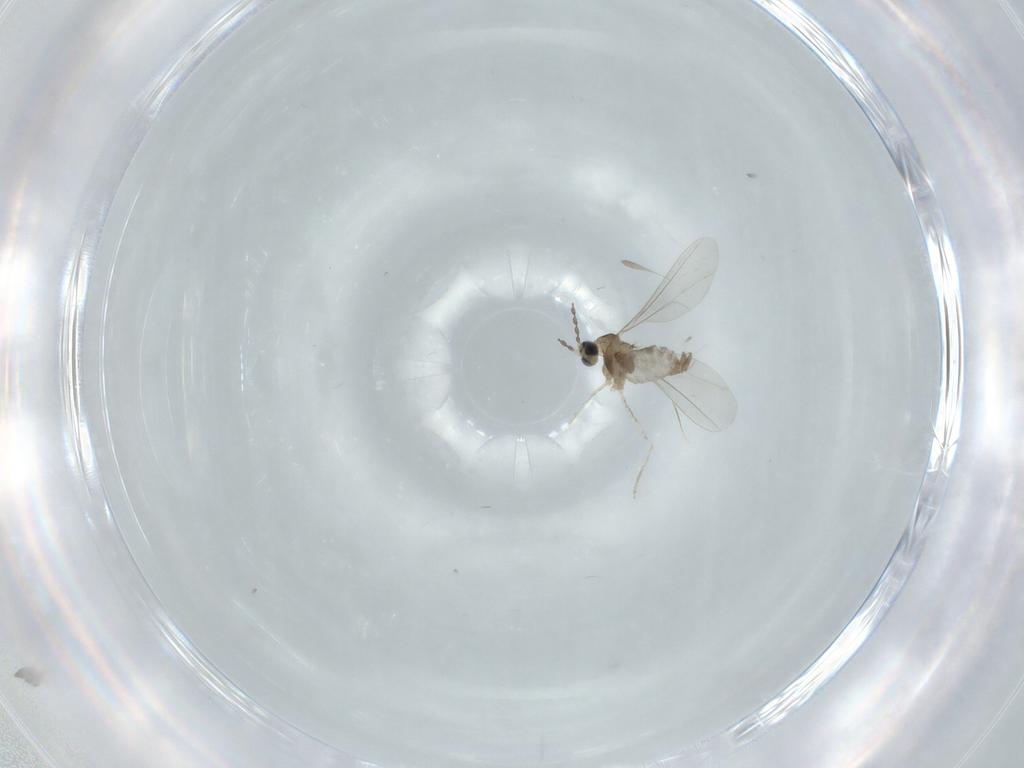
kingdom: Animalia
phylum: Arthropoda
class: Insecta
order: Diptera
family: Cecidomyiidae
